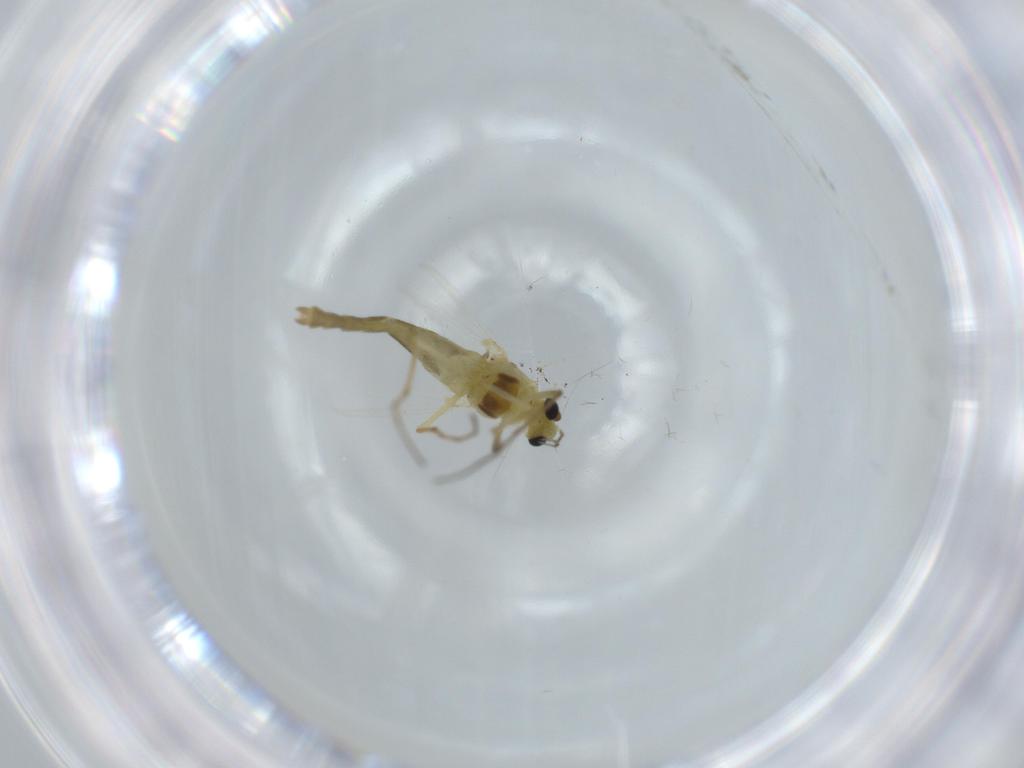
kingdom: Animalia
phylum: Arthropoda
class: Insecta
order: Diptera
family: Chironomidae
